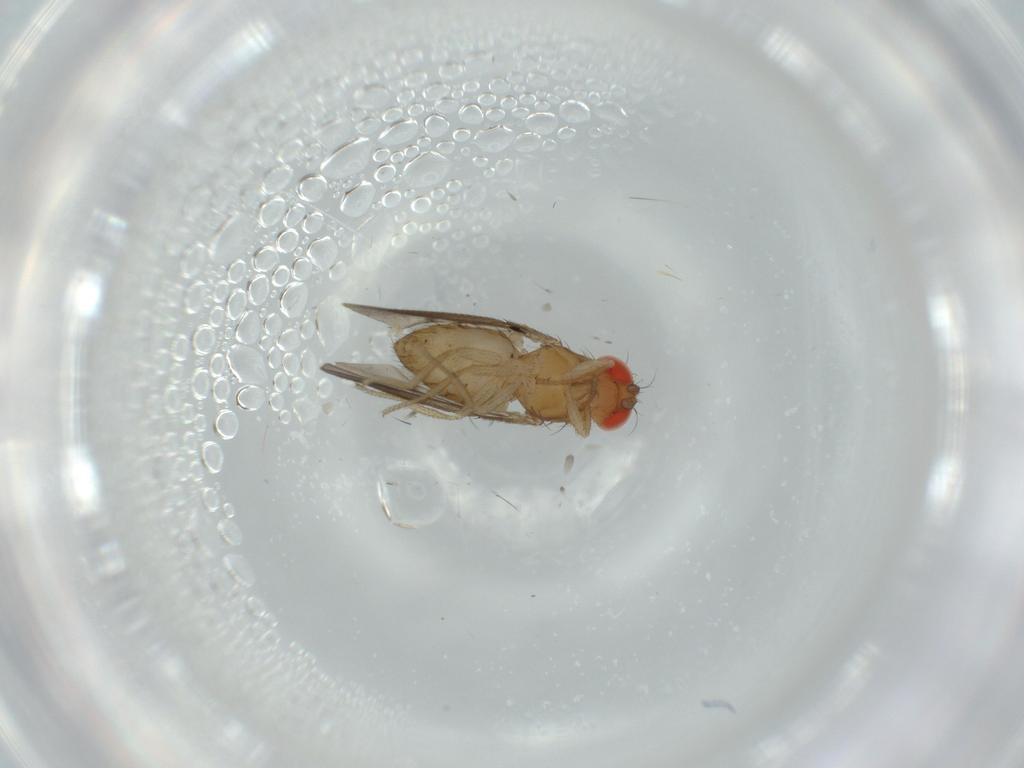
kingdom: Animalia
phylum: Arthropoda
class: Insecta
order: Diptera
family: Drosophilidae
